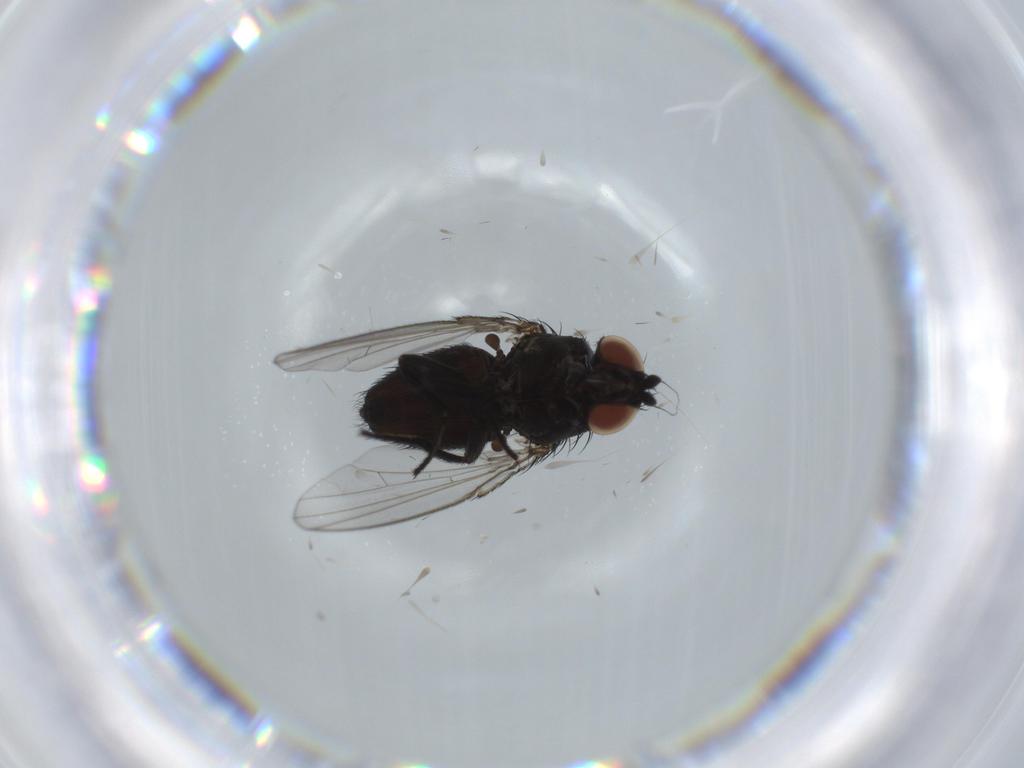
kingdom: Animalia
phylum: Arthropoda
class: Insecta
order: Diptera
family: Milichiidae
